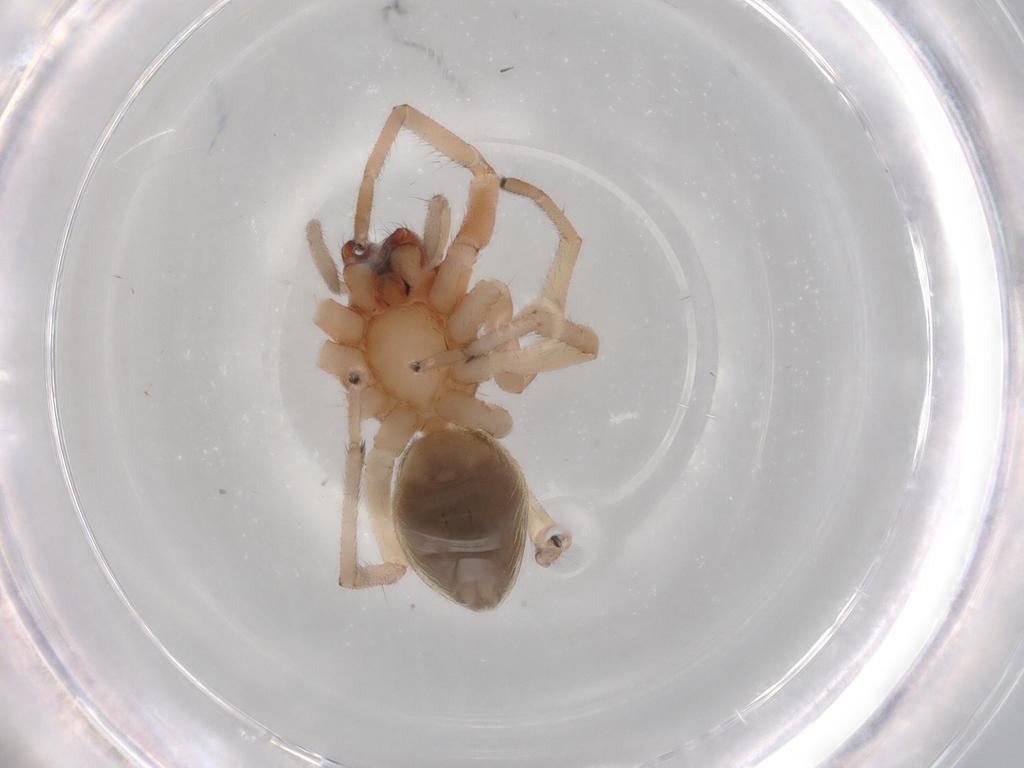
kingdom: Animalia
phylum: Arthropoda
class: Arachnida
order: Araneae
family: Trachelidae
